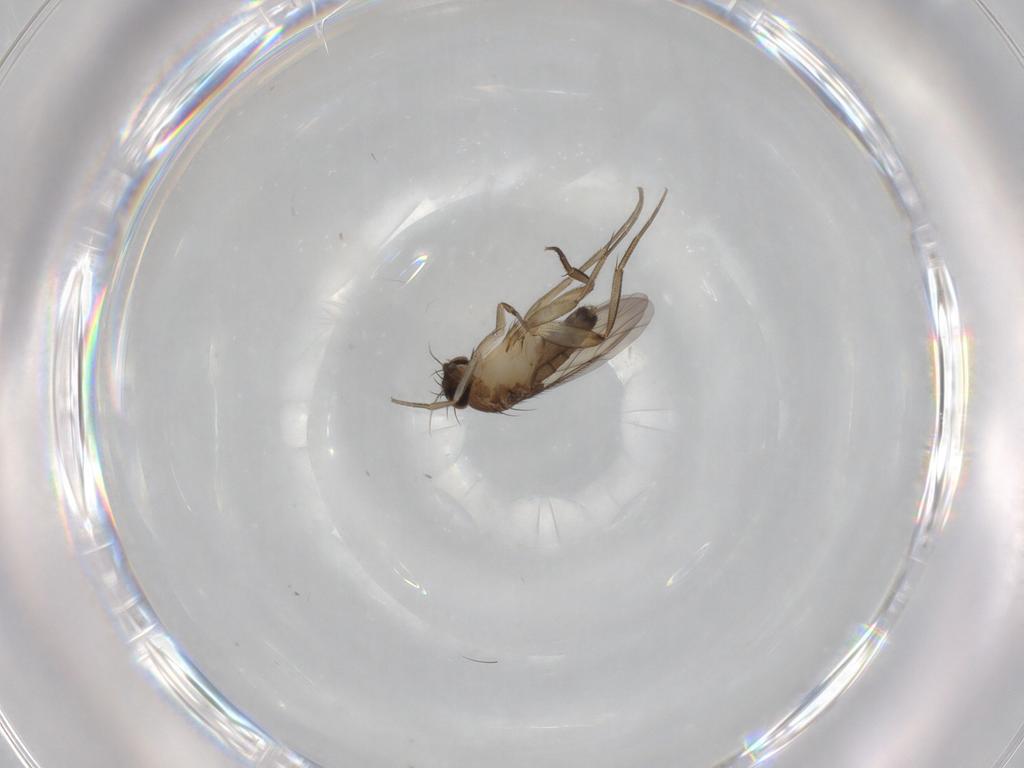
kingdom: Animalia
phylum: Arthropoda
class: Insecta
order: Diptera
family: Phoridae
